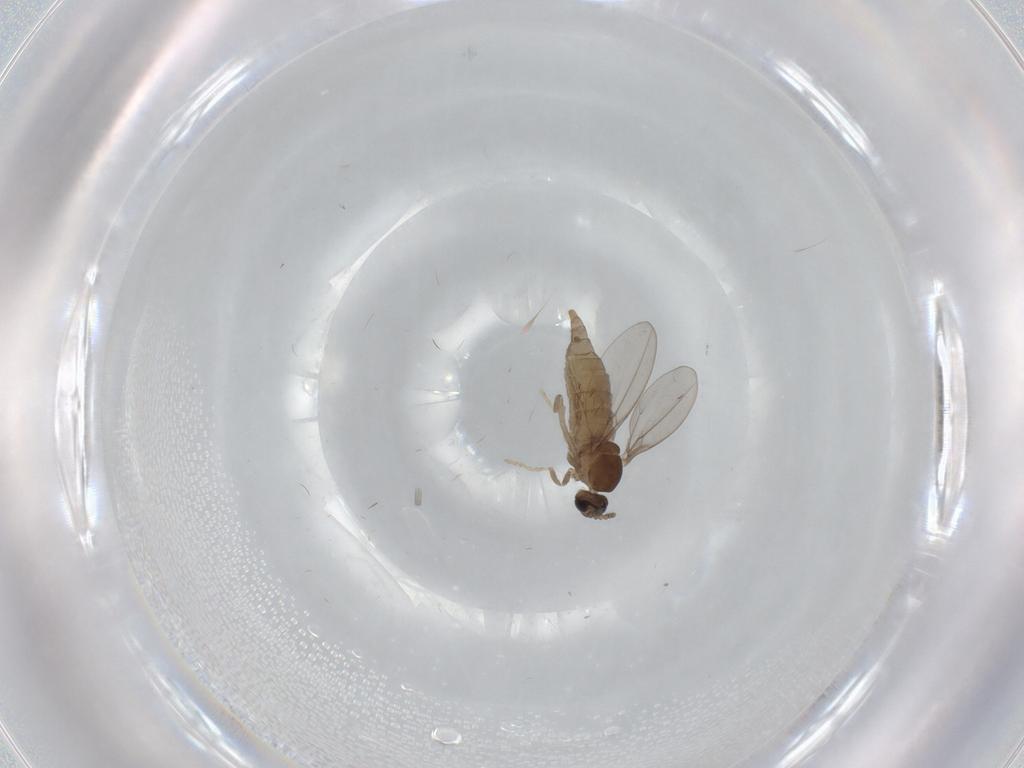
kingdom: Animalia
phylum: Arthropoda
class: Insecta
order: Diptera
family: Cecidomyiidae
